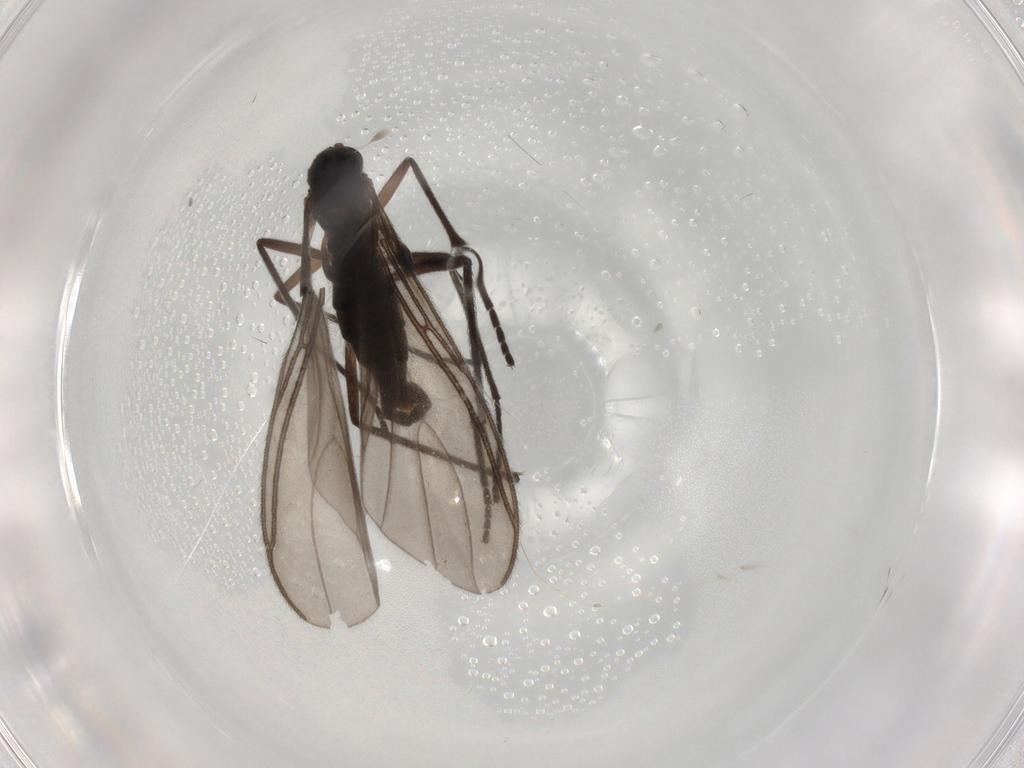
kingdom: Animalia
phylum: Arthropoda
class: Insecta
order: Diptera
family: Sciaridae
